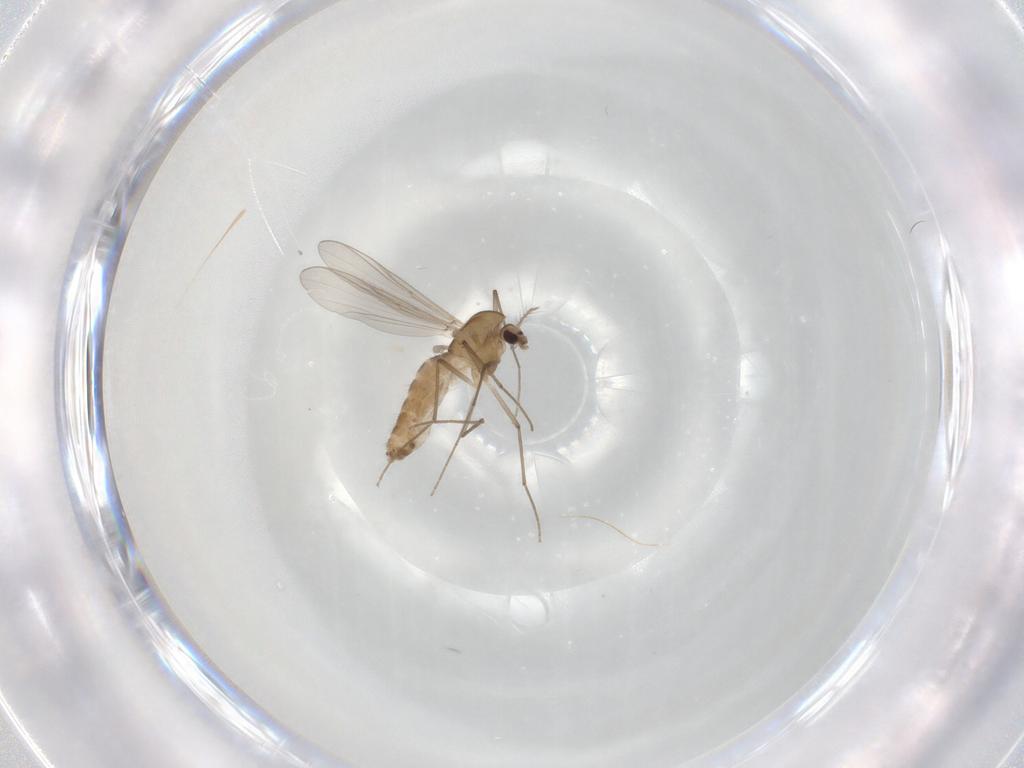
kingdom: Animalia
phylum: Arthropoda
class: Insecta
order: Diptera
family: Chironomidae
